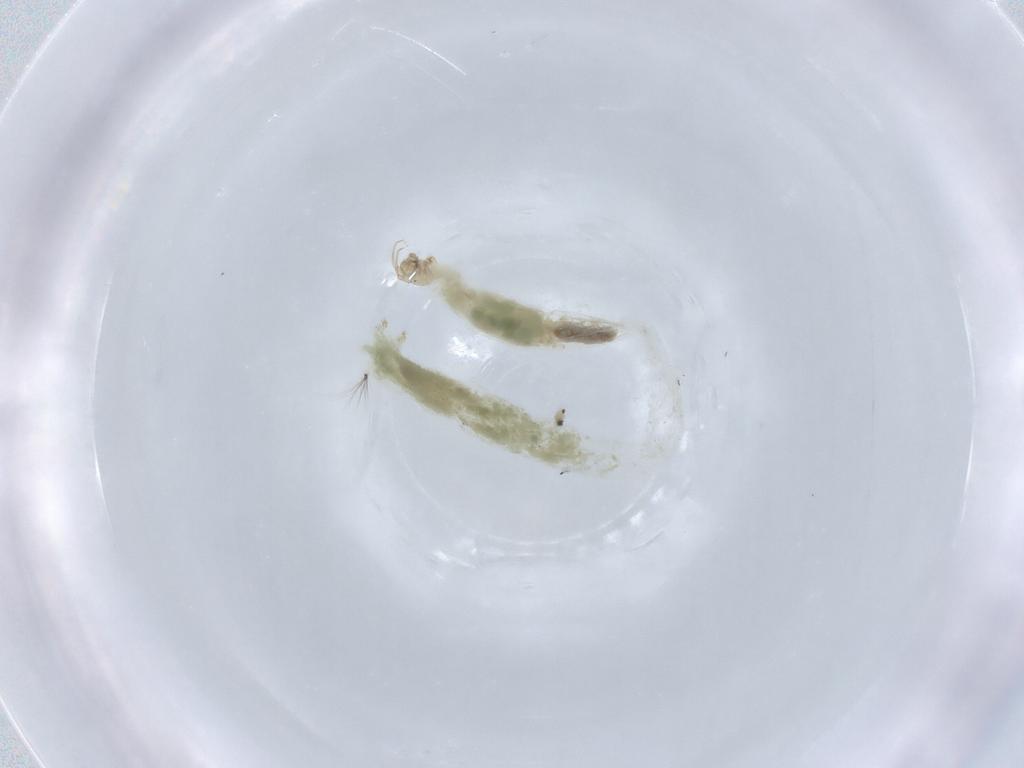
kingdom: Animalia
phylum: Arthropoda
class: Insecta
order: Diptera
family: Chironomidae
